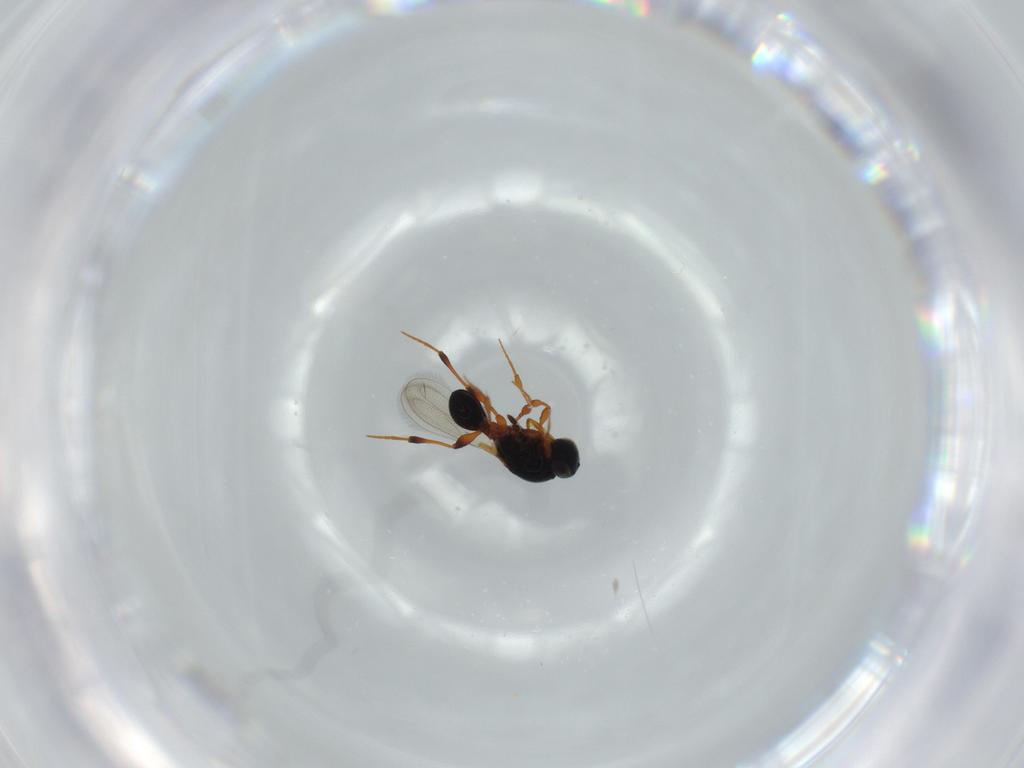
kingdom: Animalia
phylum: Arthropoda
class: Insecta
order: Hymenoptera
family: Platygastridae
